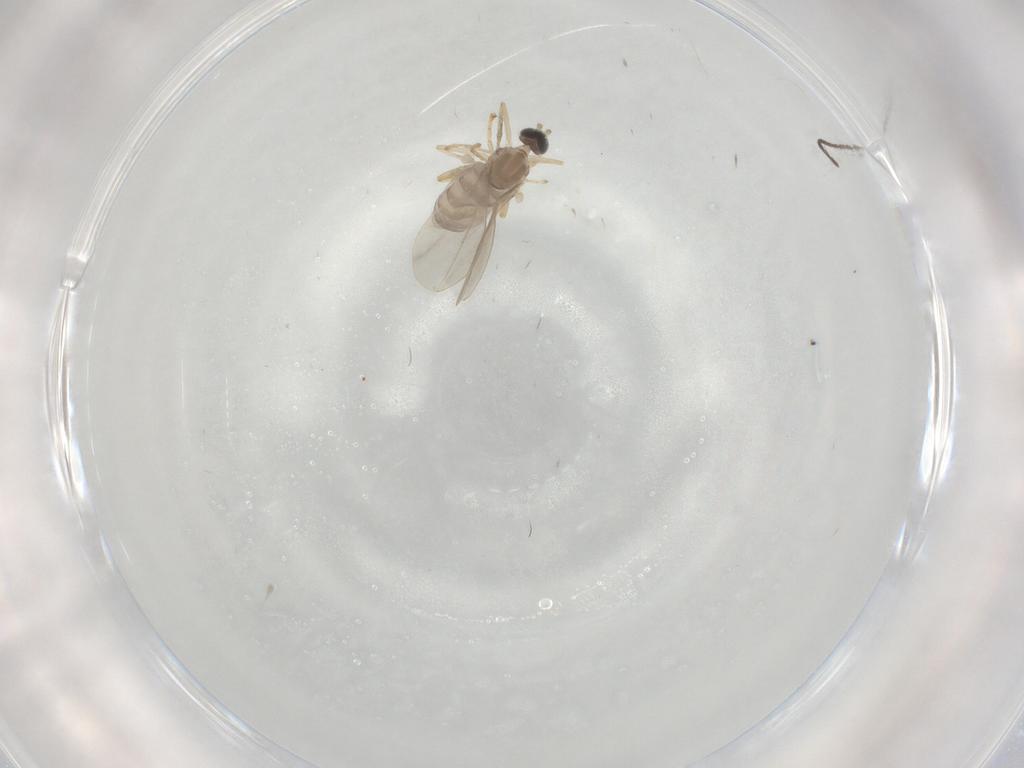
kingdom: Animalia
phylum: Arthropoda
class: Insecta
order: Diptera
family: Cecidomyiidae
